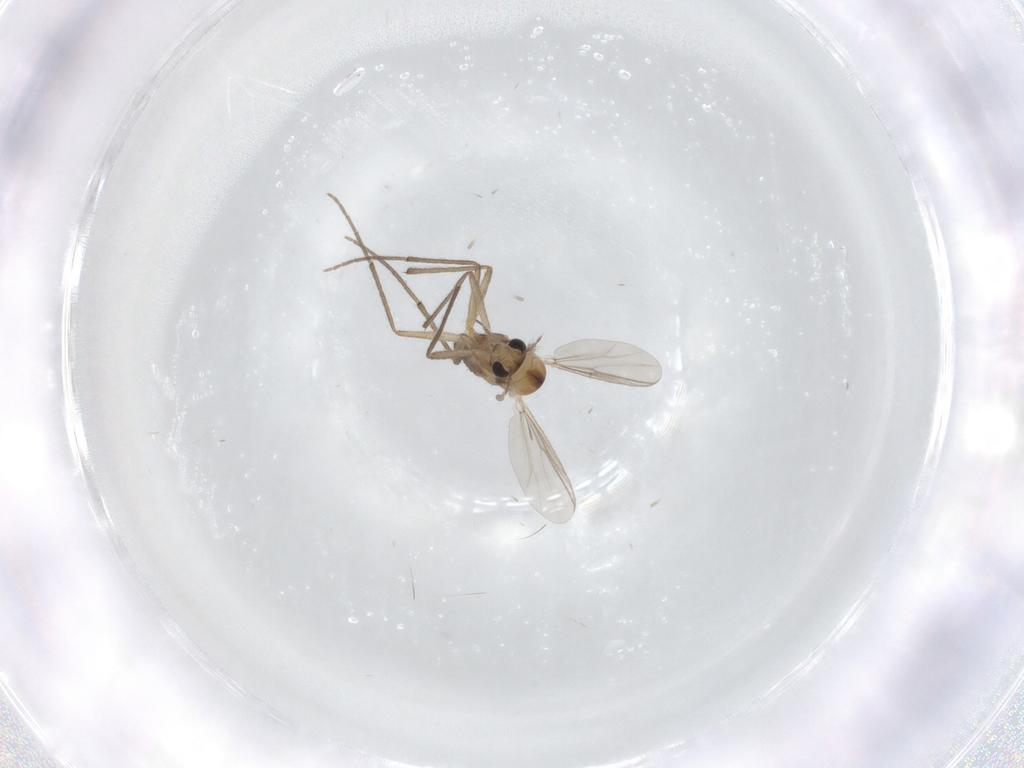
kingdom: Animalia
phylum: Arthropoda
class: Insecta
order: Diptera
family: Chironomidae
